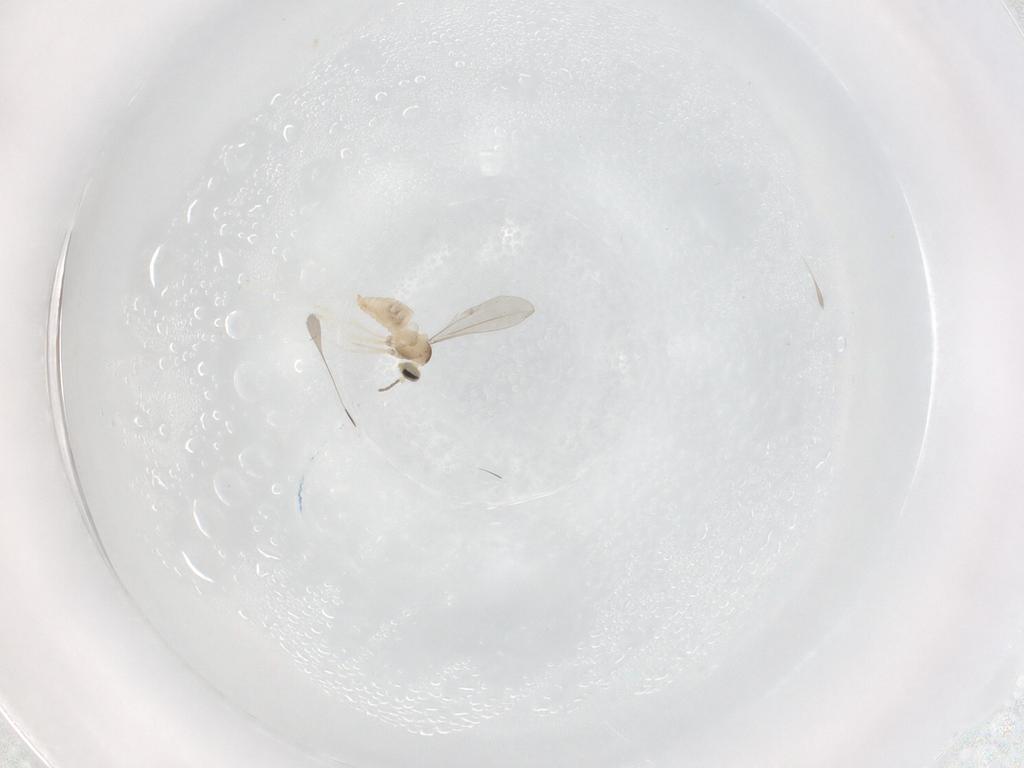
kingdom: Animalia
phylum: Arthropoda
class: Insecta
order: Diptera
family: Cecidomyiidae
